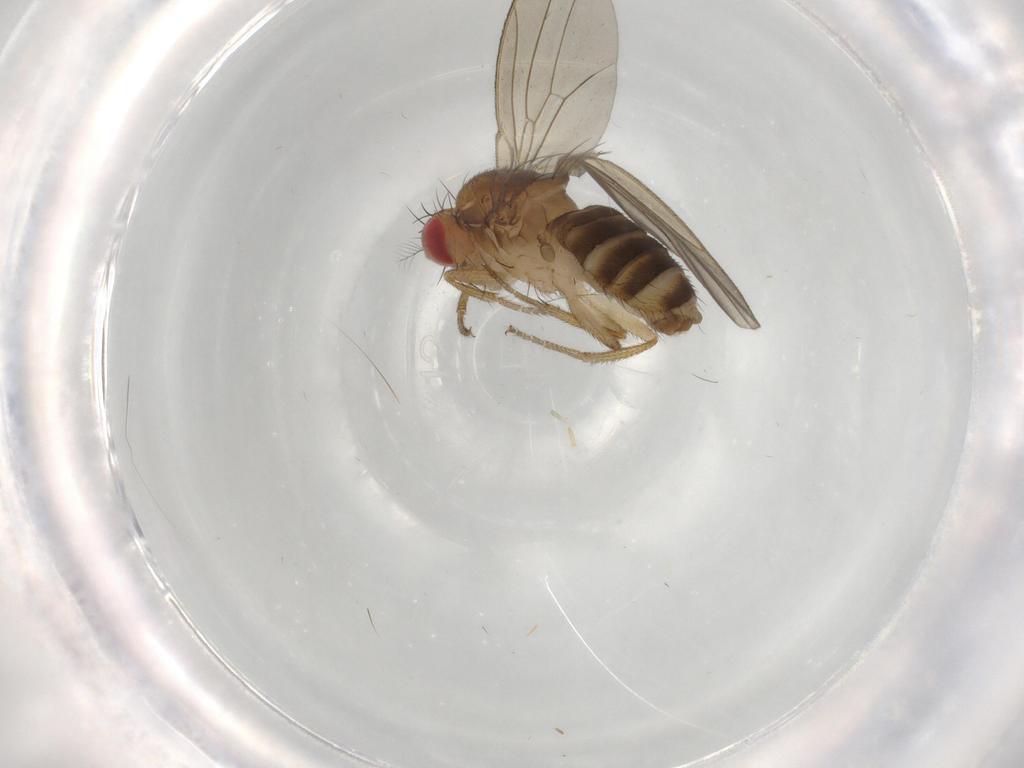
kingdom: Animalia
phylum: Arthropoda
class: Insecta
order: Diptera
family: Drosophilidae
